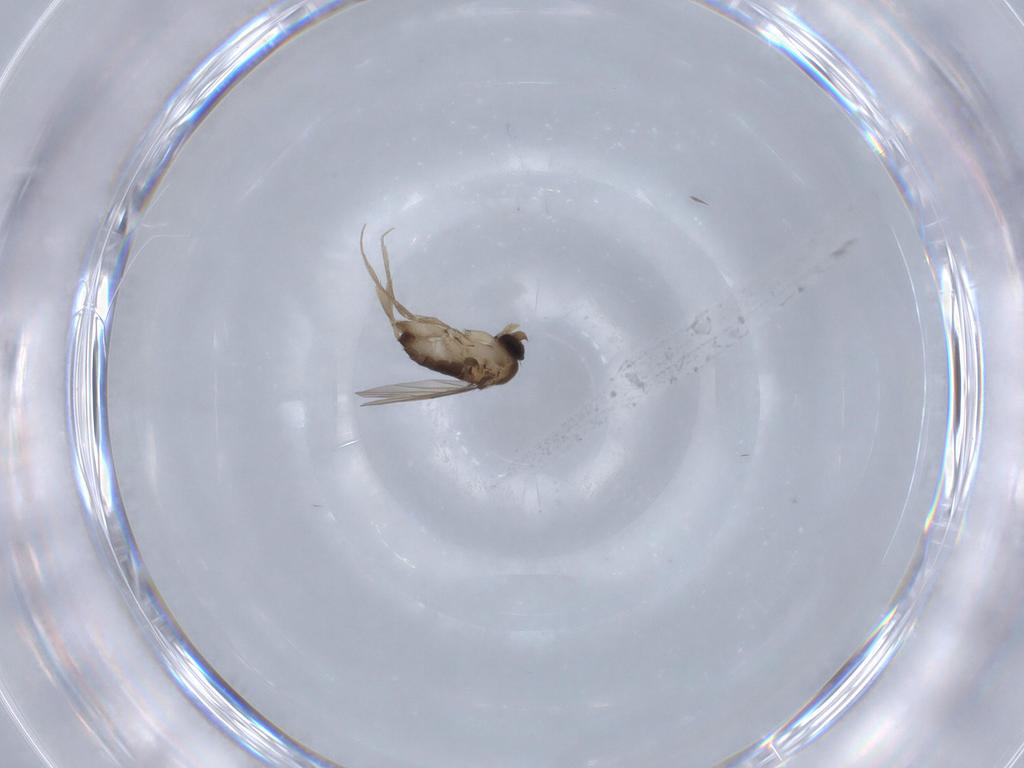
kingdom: Animalia
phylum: Arthropoda
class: Insecta
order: Diptera
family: Phoridae
